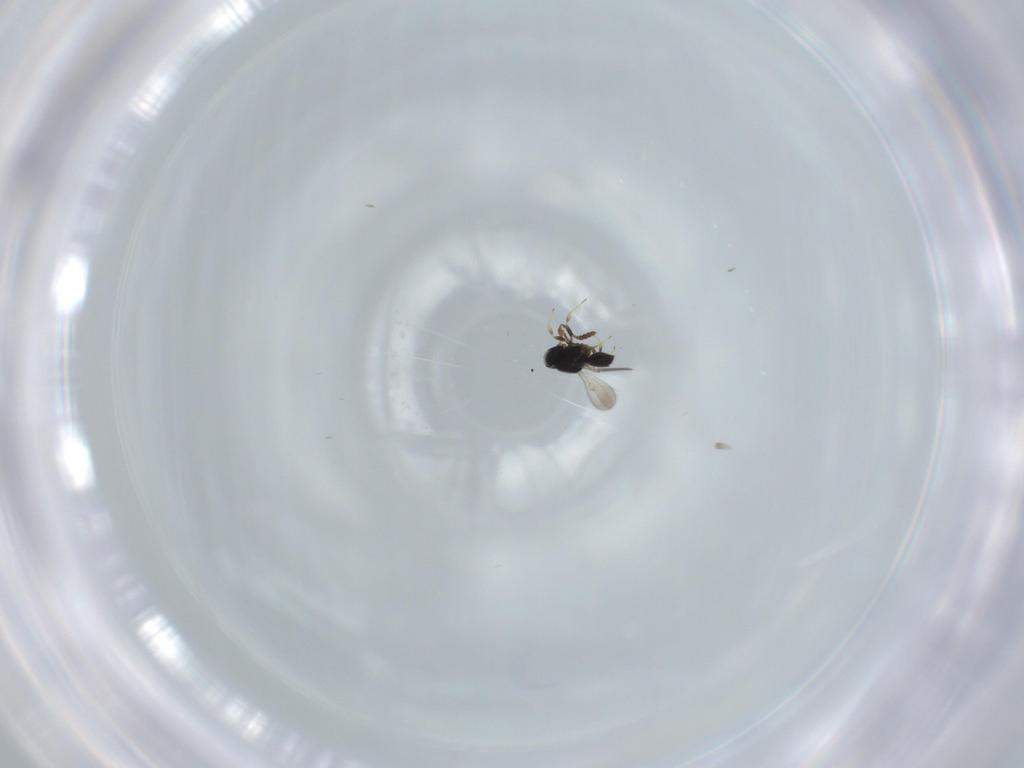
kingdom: Animalia
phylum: Arthropoda
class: Insecta
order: Hymenoptera
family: Scelionidae
